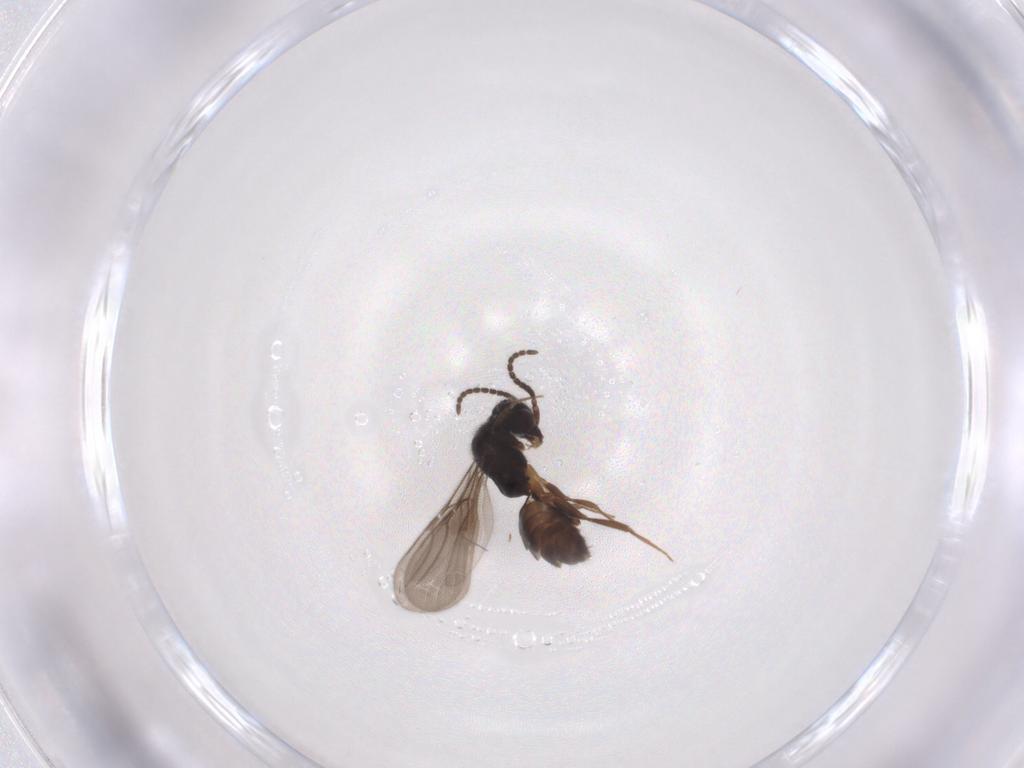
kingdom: Animalia
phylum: Arthropoda
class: Insecta
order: Hymenoptera
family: Bethylidae
